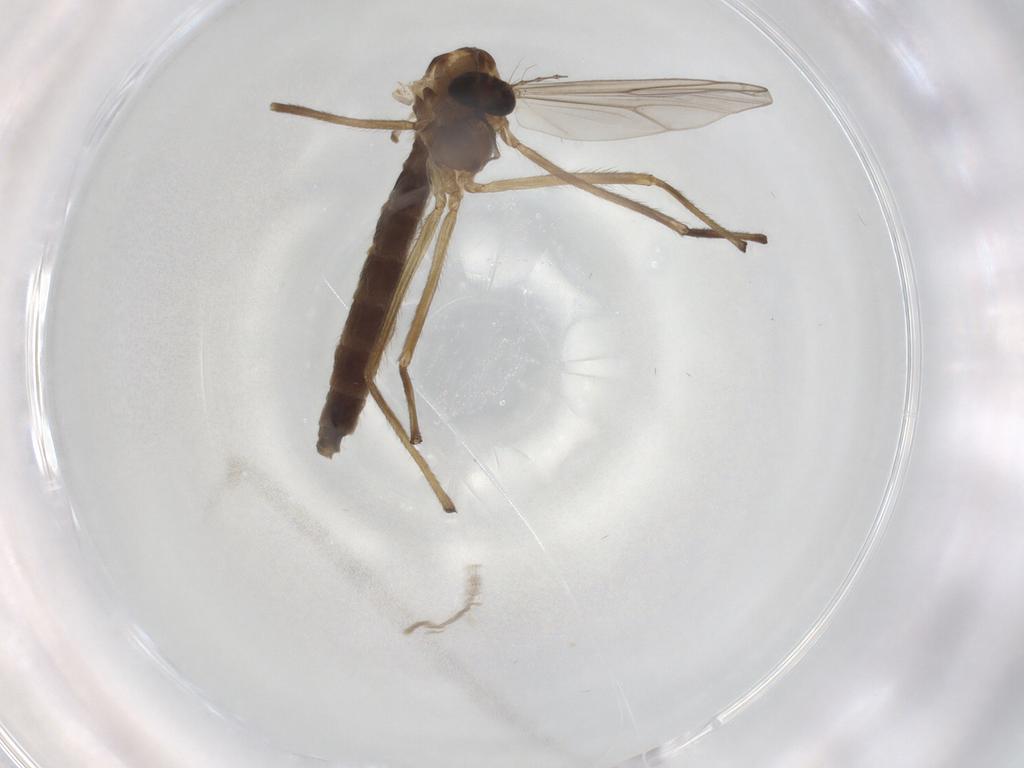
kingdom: Animalia
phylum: Arthropoda
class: Insecta
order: Diptera
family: Chironomidae
